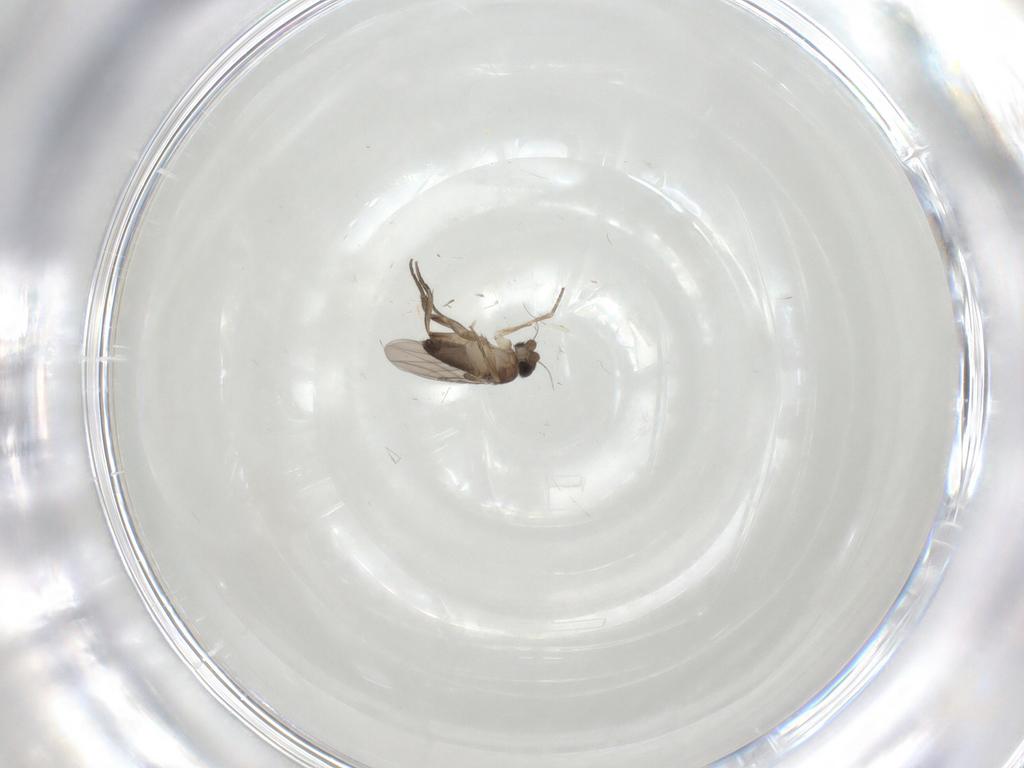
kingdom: Animalia
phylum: Arthropoda
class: Insecta
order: Diptera
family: Phoridae
